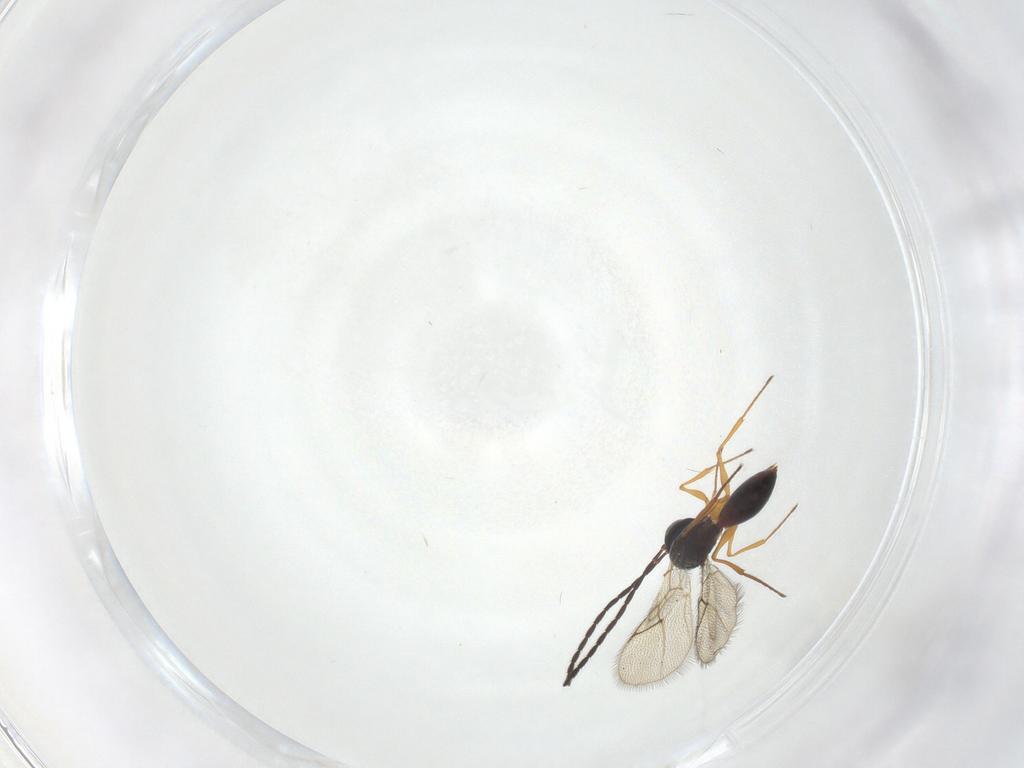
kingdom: Animalia
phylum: Arthropoda
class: Insecta
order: Hymenoptera
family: Figitidae
